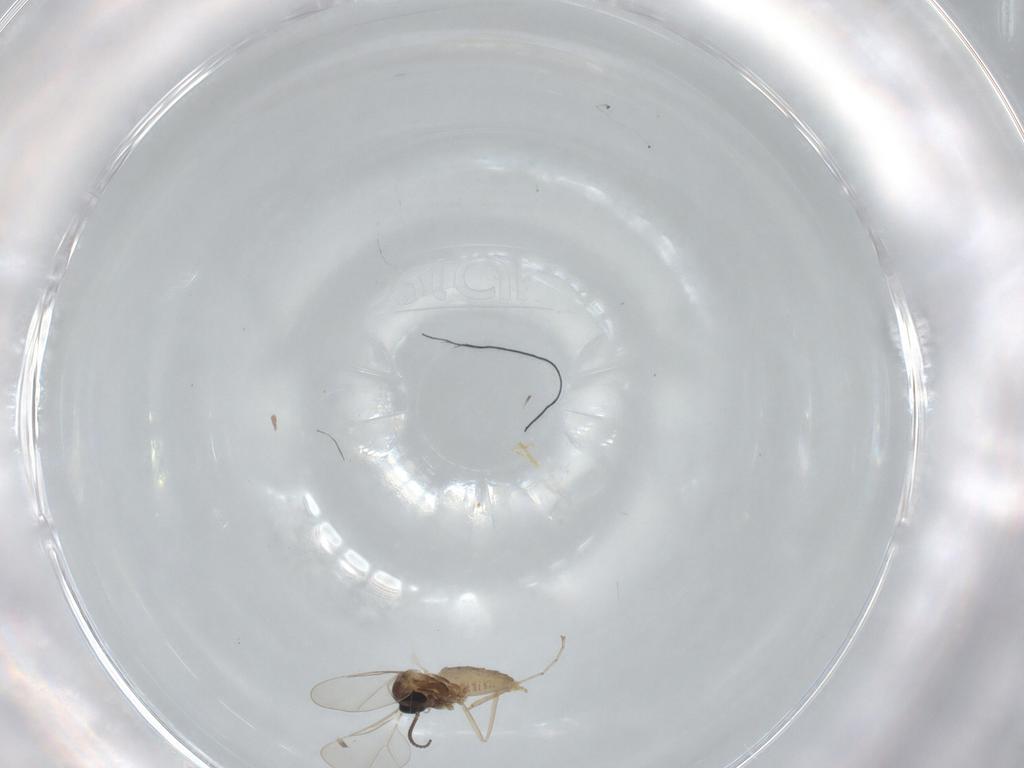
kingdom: Animalia
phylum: Arthropoda
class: Insecta
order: Diptera
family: Cecidomyiidae
